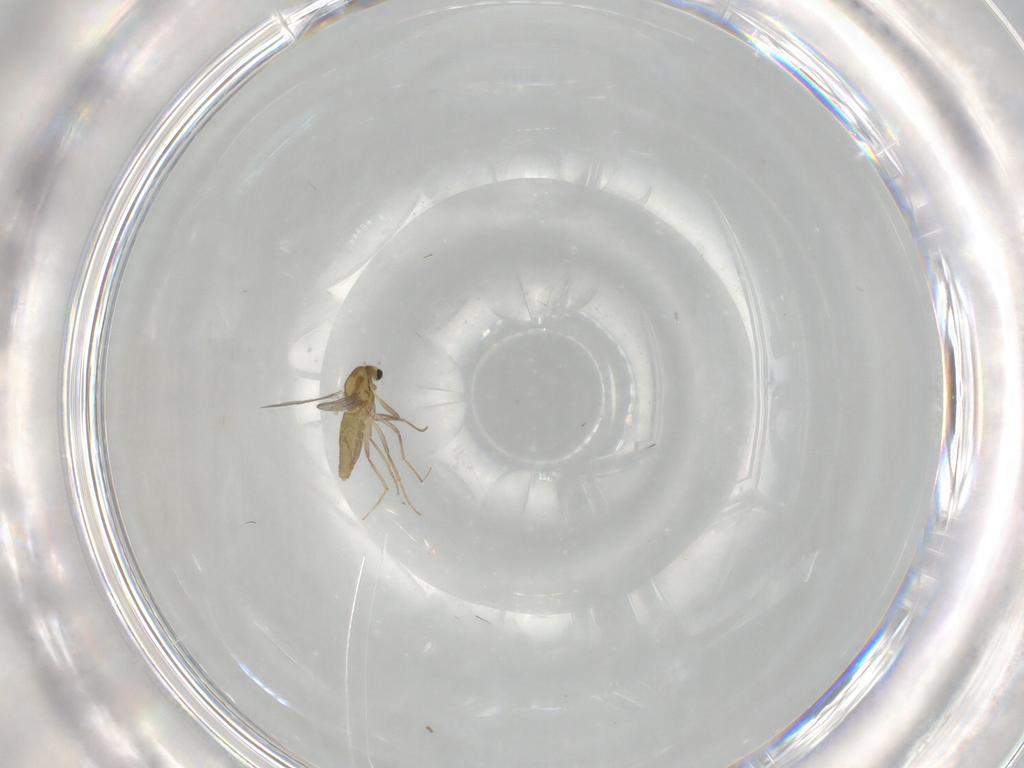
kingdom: Animalia
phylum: Arthropoda
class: Insecta
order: Diptera
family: Chironomidae
